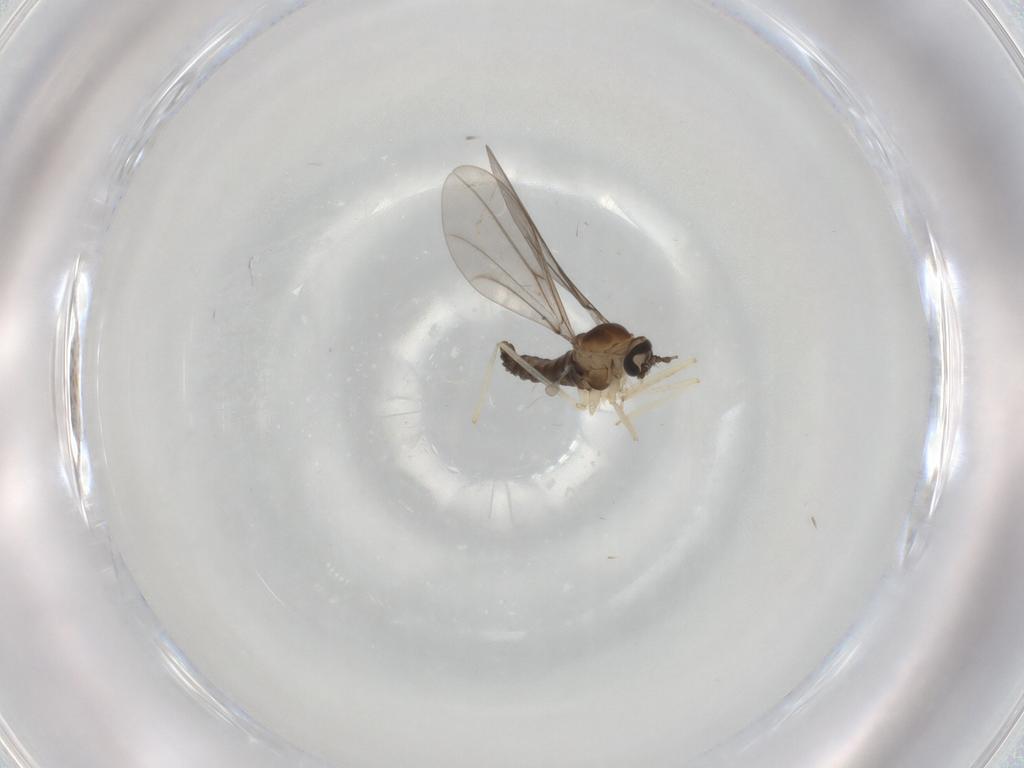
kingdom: Animalia
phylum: Arthropoda
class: Insecta
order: Diptera
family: Cecidomyiidae
